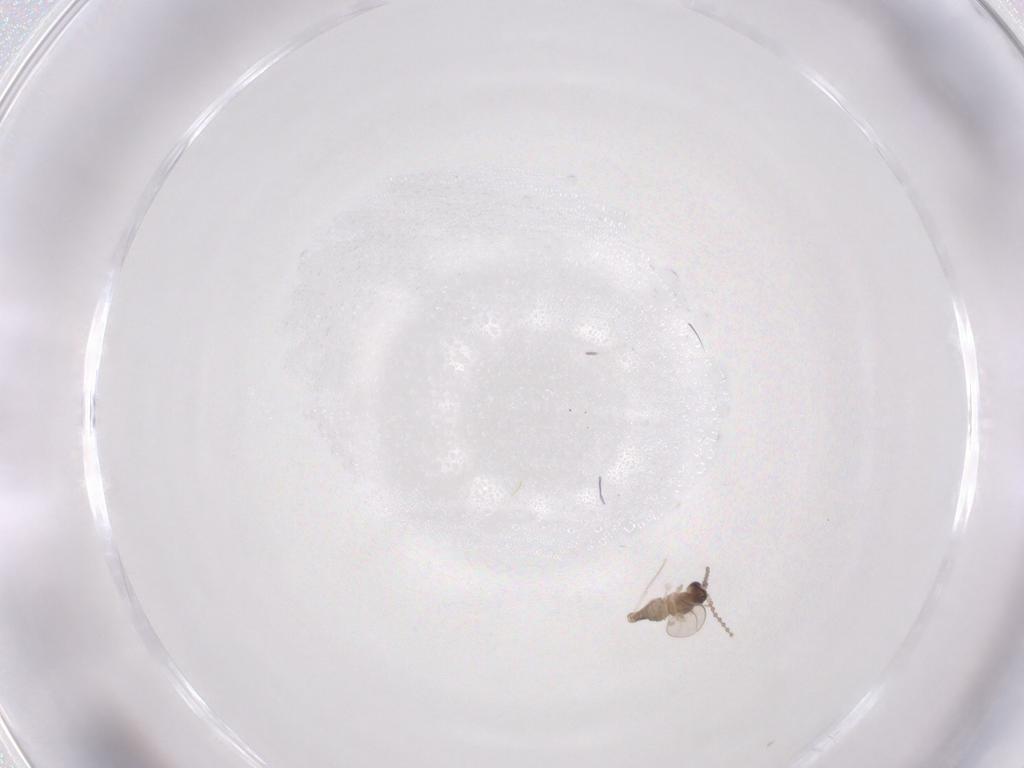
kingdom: Animalia
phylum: Arthropoda
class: Insecta
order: Diptera
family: Cecidomyiidae
